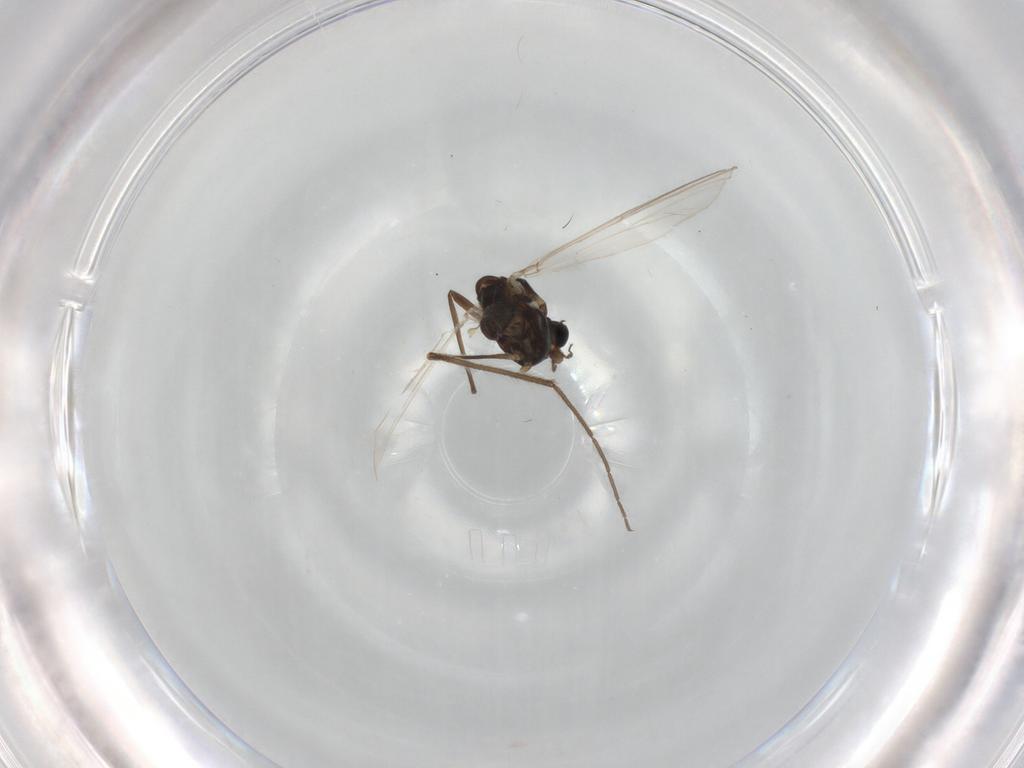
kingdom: Animalia
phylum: Arthropoda
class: Insecta
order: Diptera
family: Chironomidae
